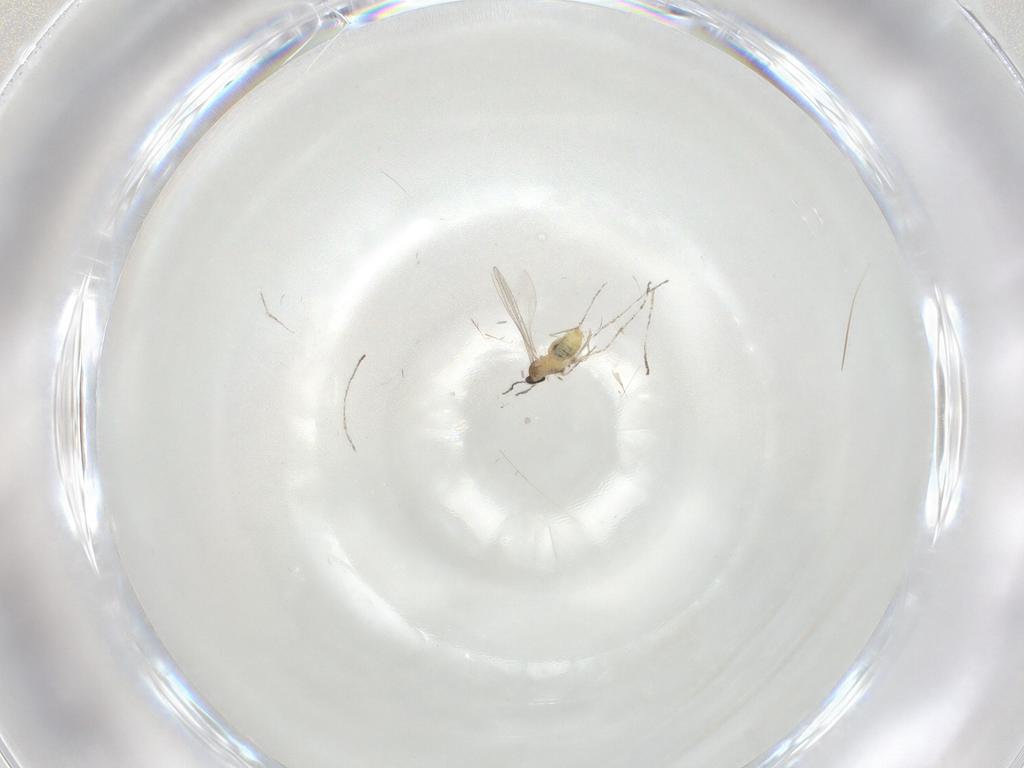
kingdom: Animalia
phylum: Arthropoda
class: Insecta
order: Diptera
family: Cecidomyiidae
